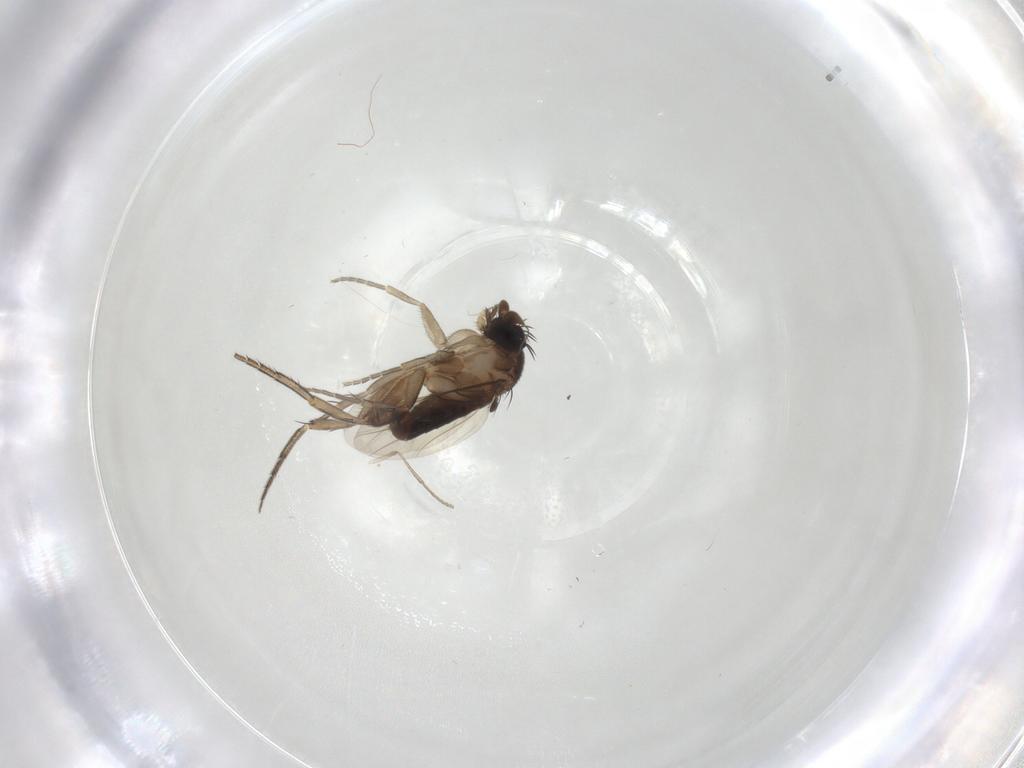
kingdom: Animalia
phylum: Arthropoda
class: Insecta
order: Diptera
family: Phoridae
